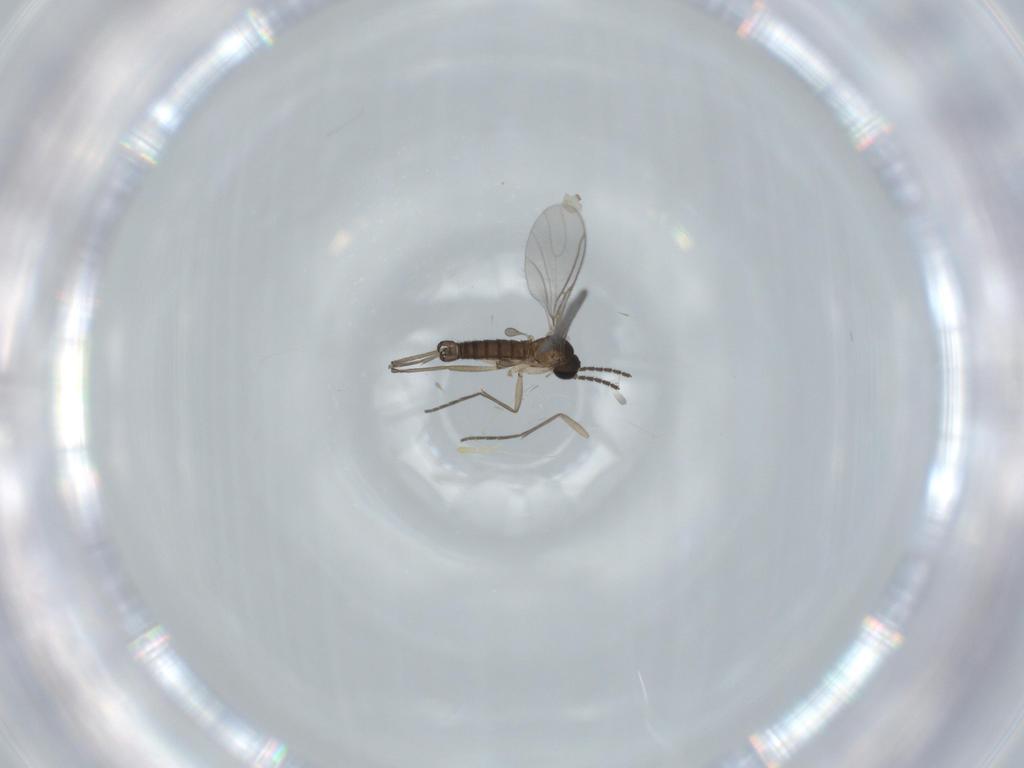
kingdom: Animalia
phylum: Arthropoda
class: Insecta
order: Diptera
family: Sciaridae
